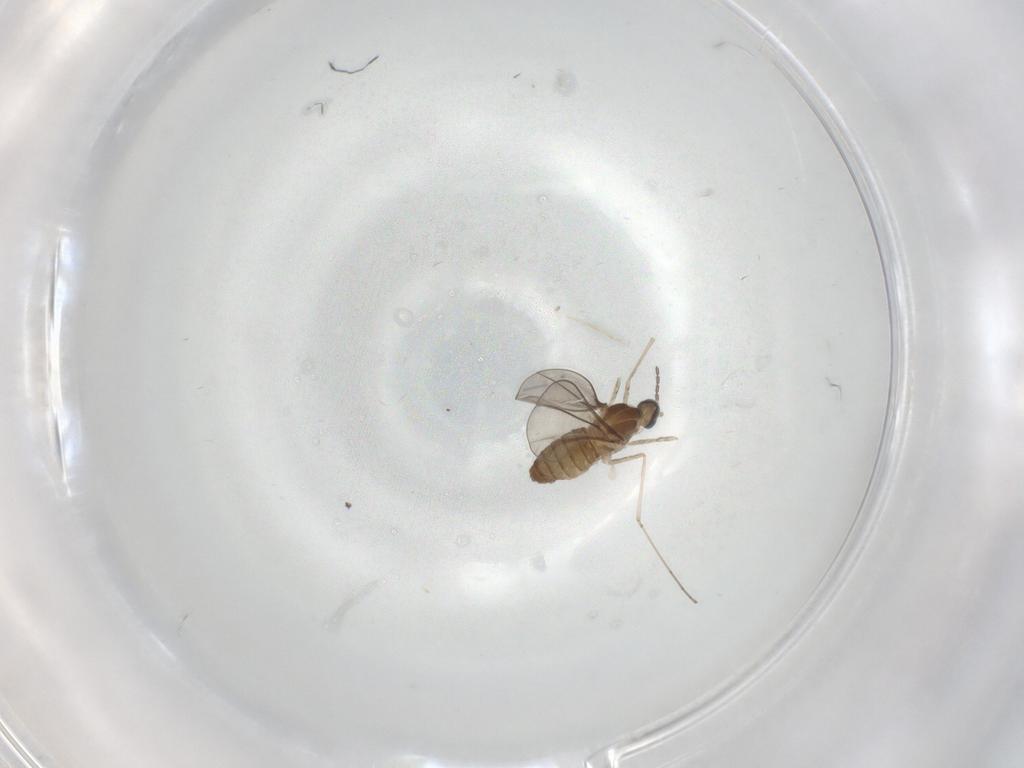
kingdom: Animalia
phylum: Arthropoda
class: Insecta
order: Diptera
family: Cecidomyiidae
